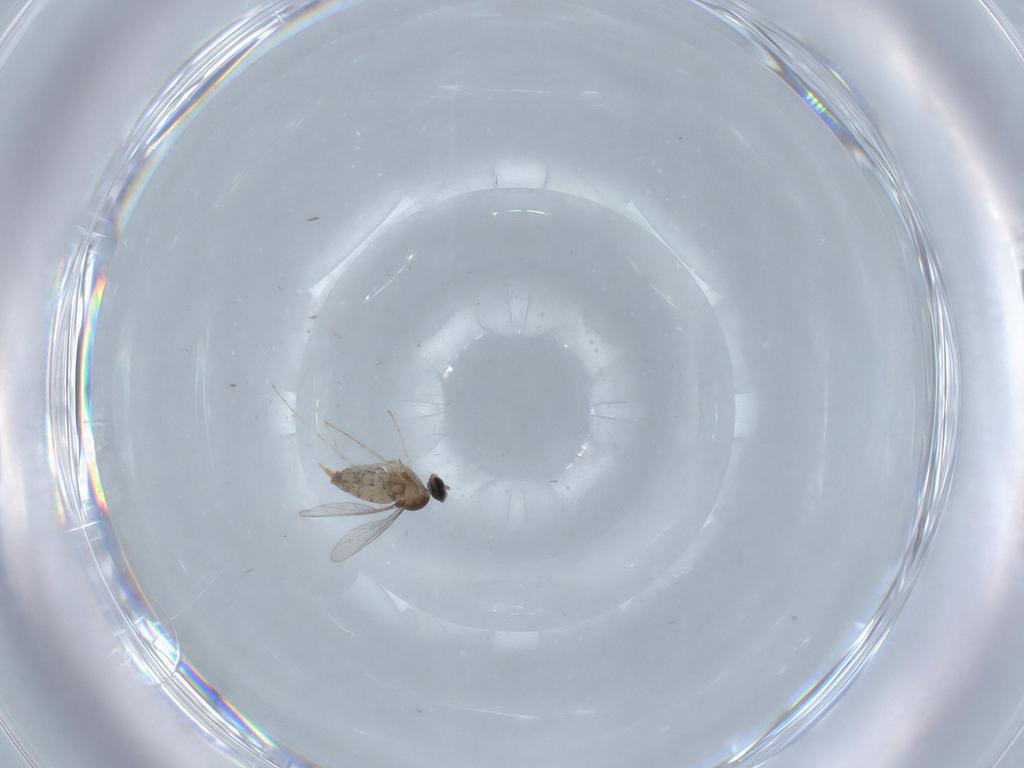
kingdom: Animalia
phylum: Arthropoda
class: Insecta
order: Diptera
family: Cecidomyiidae
